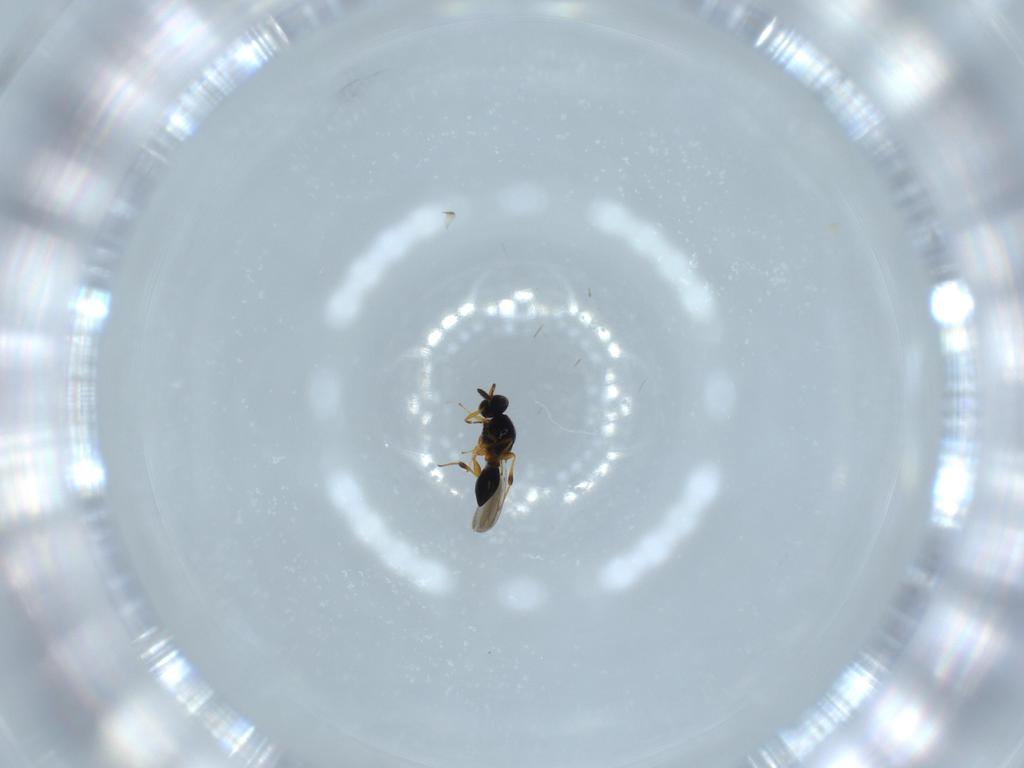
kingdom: Animalia
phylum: Arthropoda
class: Insecta
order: Hymenoptera
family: Platygastridae
